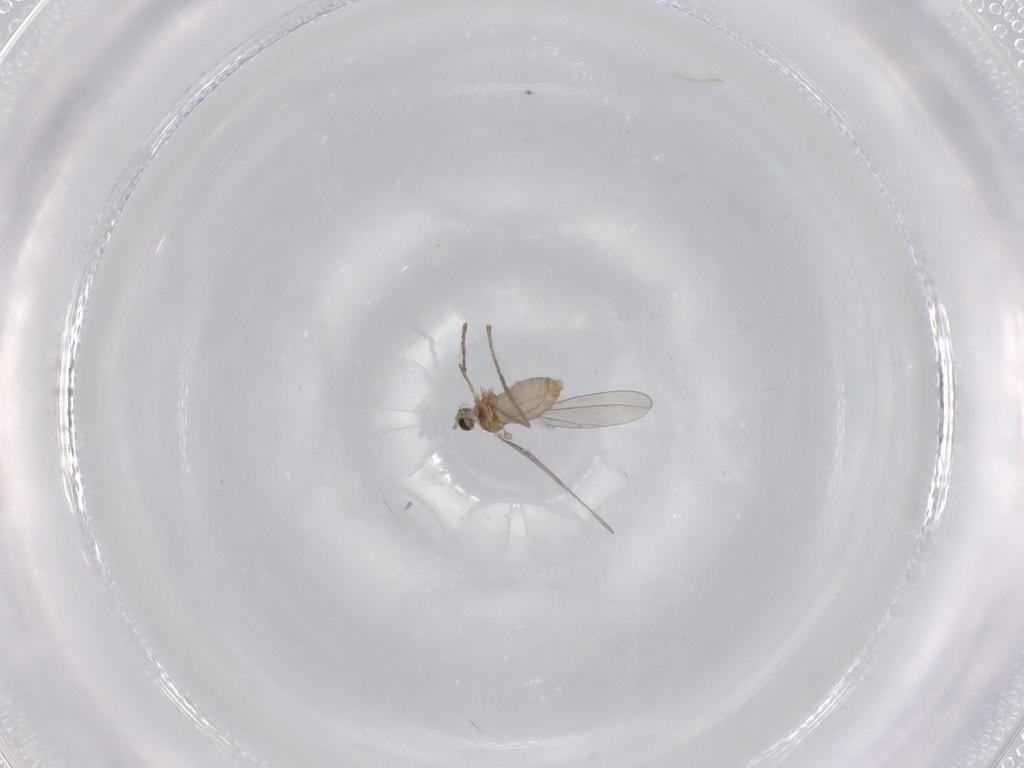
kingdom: Animalia
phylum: Arthropoda
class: Insecta
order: Diptera
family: Cecidomyiidae
